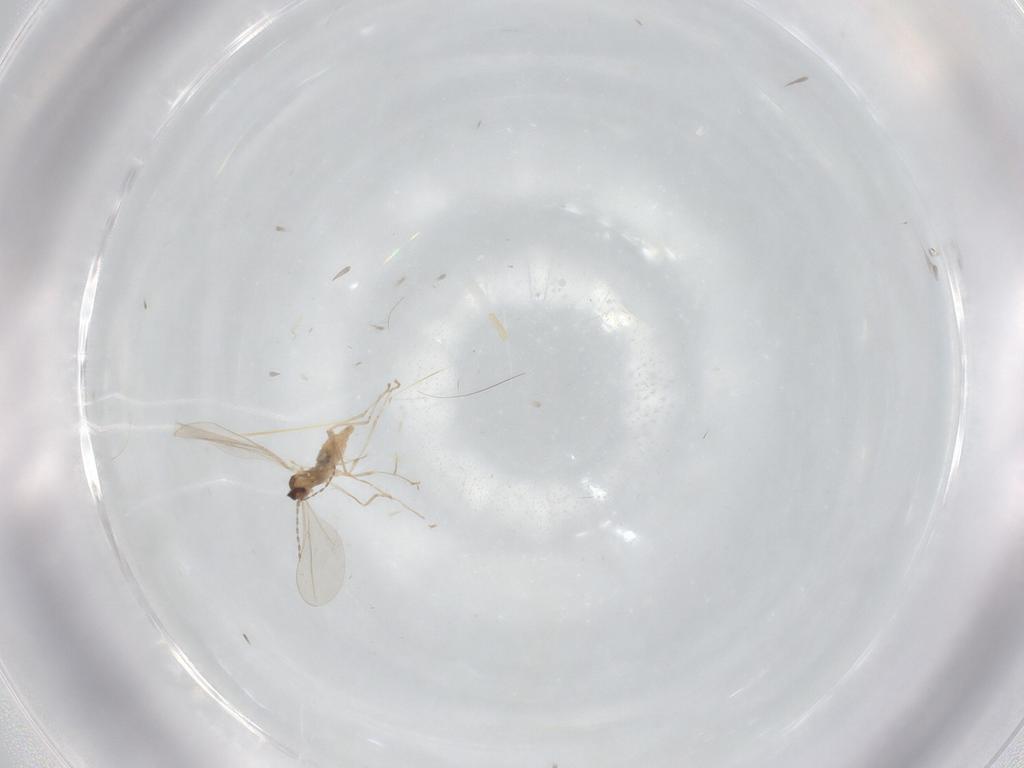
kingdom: Animalia
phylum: Arthropoda
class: Insecta
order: Diptera
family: Cecidomyiidae
